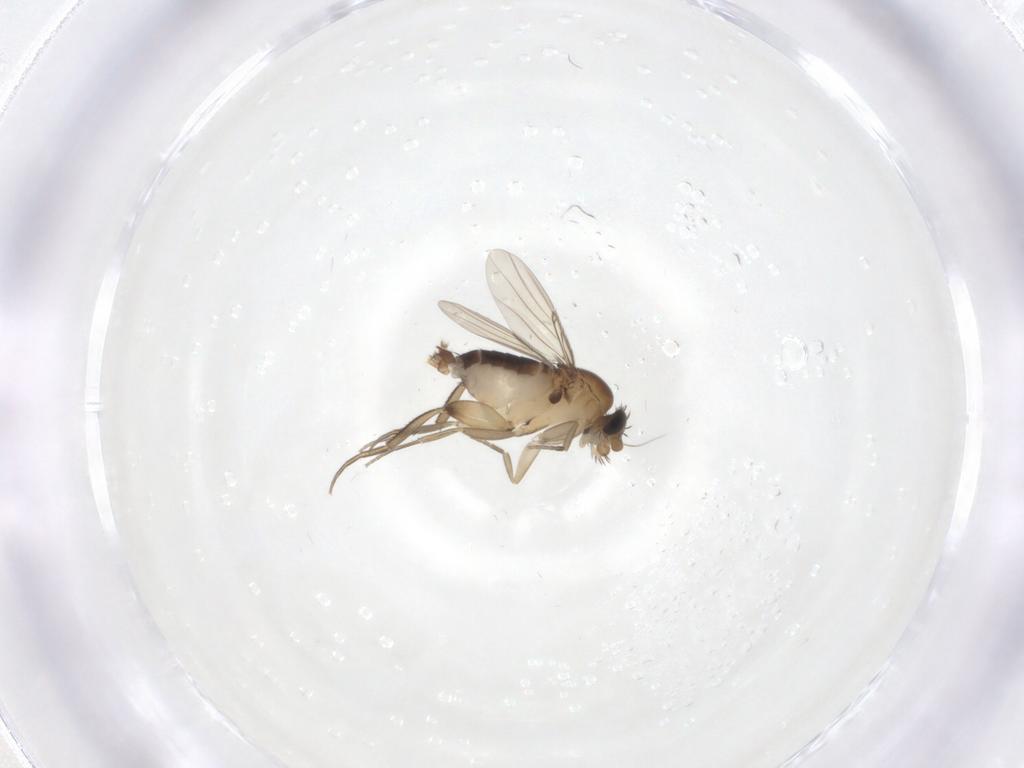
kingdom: Animalia
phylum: Arthropoda
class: Insecta
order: Diptera
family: Phoridae
